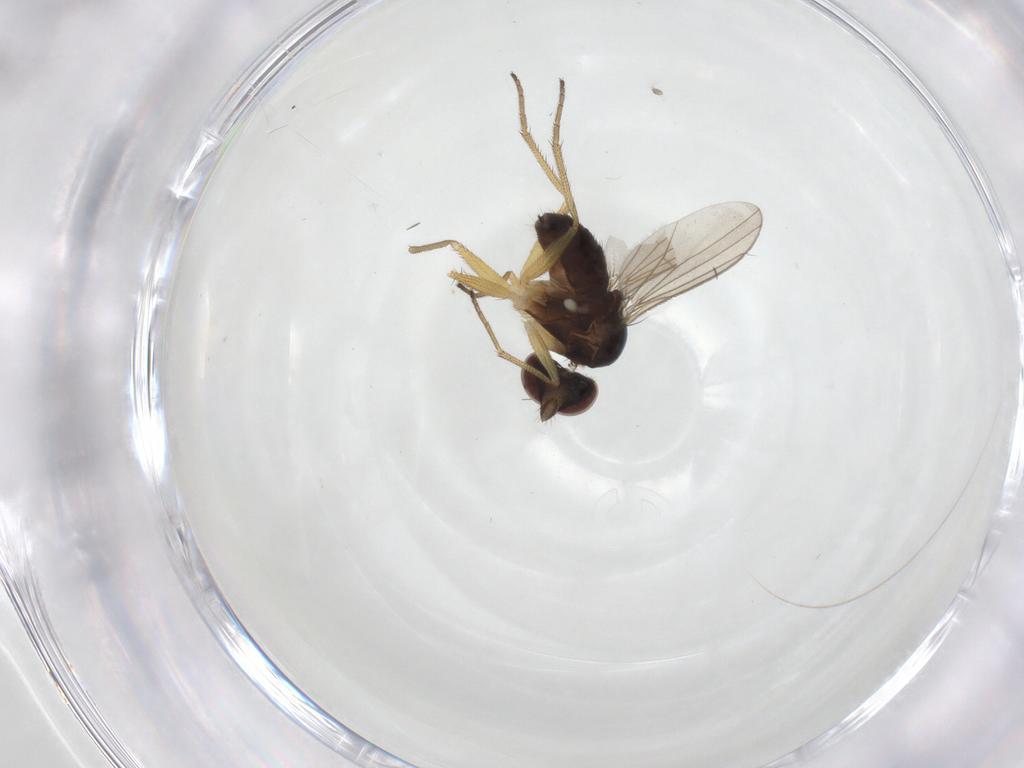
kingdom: Animalia
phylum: Arthropoda
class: Insecta
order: Diptera
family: Dolichopodidae
